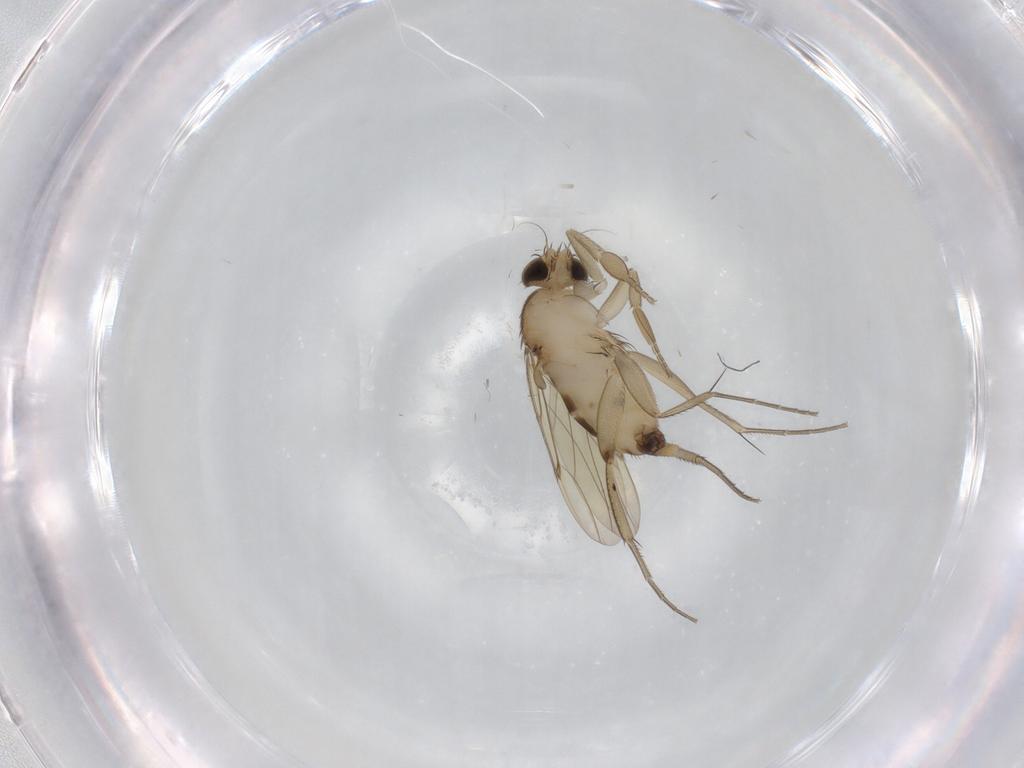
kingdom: Animalia
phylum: Arthropoda
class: Insecta
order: Diptera
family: Phoridae
